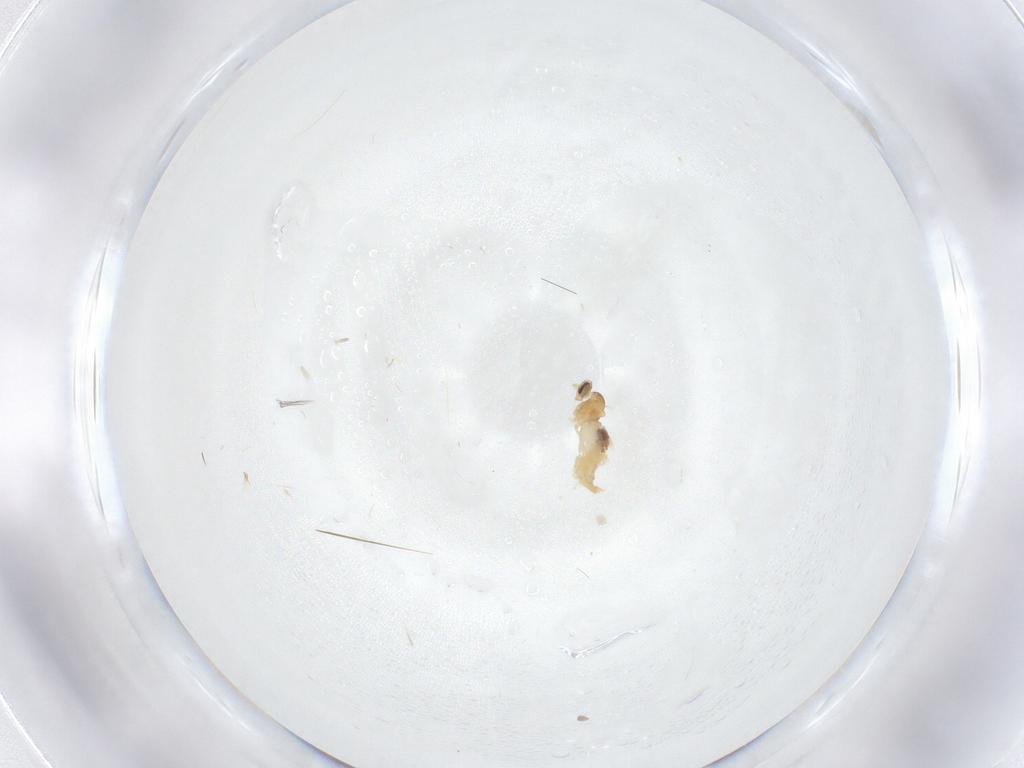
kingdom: Animalia
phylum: Arthropoda
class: Insecta
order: Diptera
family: Cecidomyiidae
